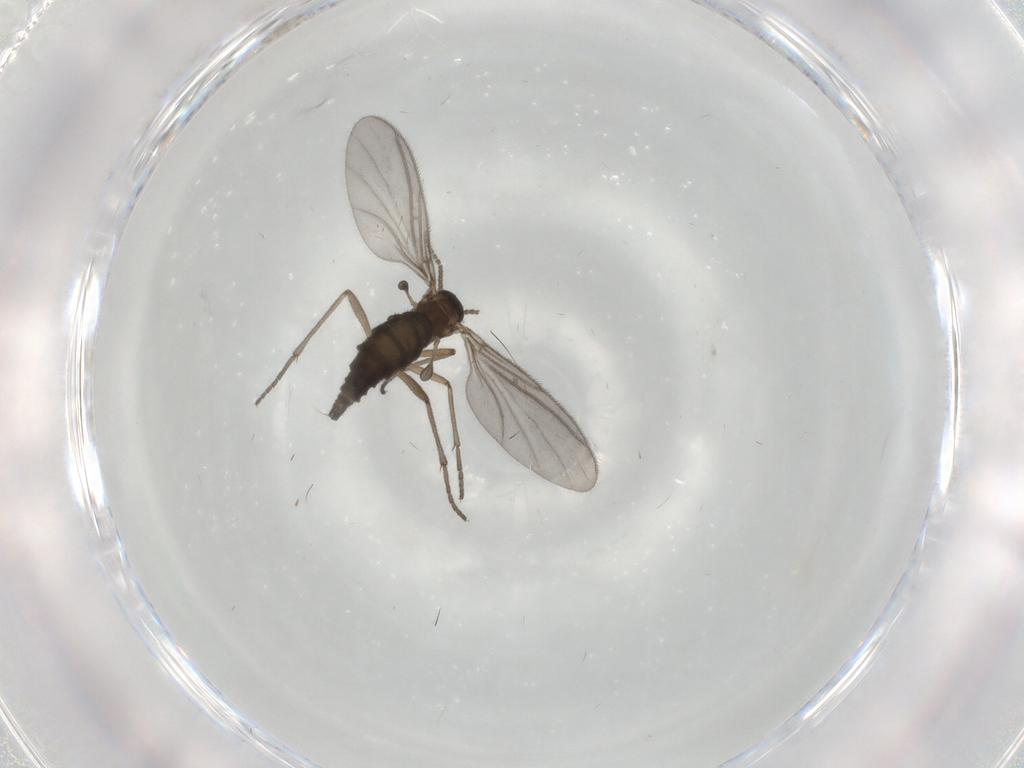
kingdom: Animalia
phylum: Arthropoda
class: Insecta
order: Diptera
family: Sciaridae
